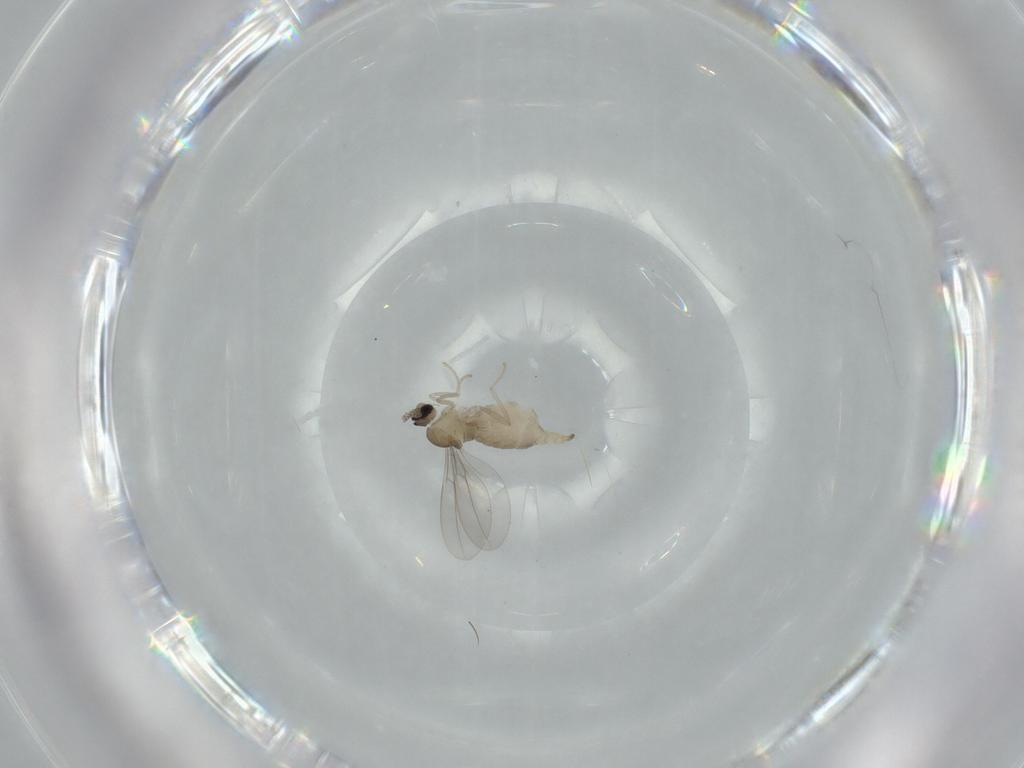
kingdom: Animalia
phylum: Arthropoda
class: Insecta
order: Diptera
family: Cecidomyiidae
